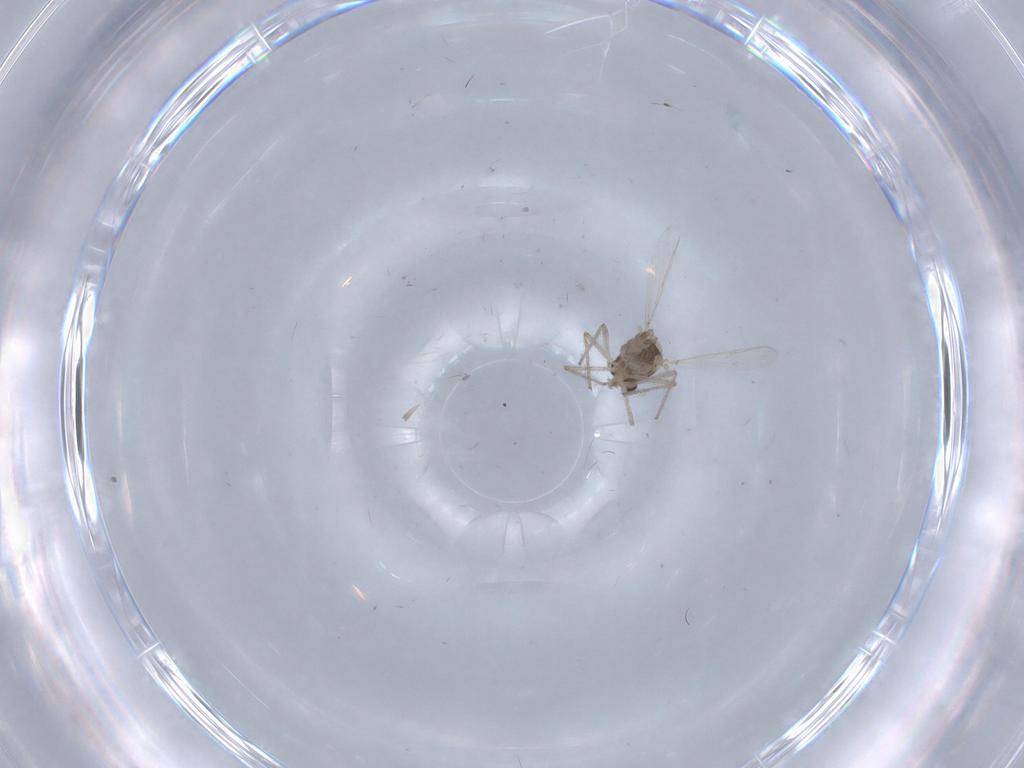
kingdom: Animalia
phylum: Arthropoda
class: Insecta
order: Diptera
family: Chironomidae
